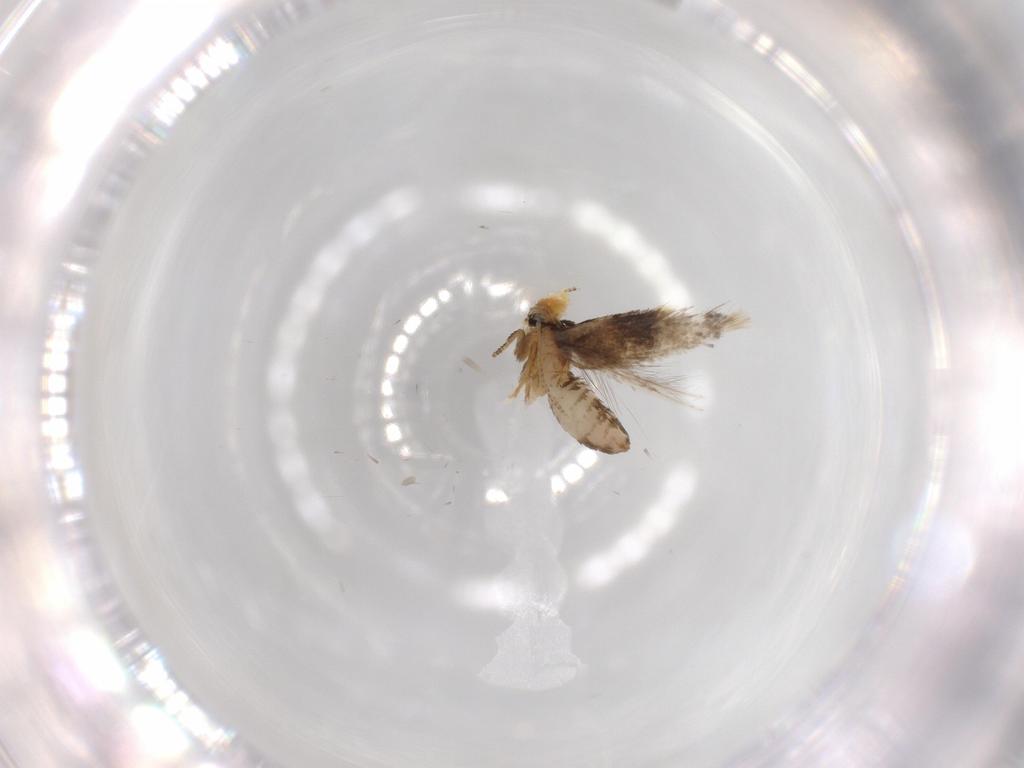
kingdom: Animalia
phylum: Arthropoda
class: Insecta
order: Lepidoptera
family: Nepticulidae
